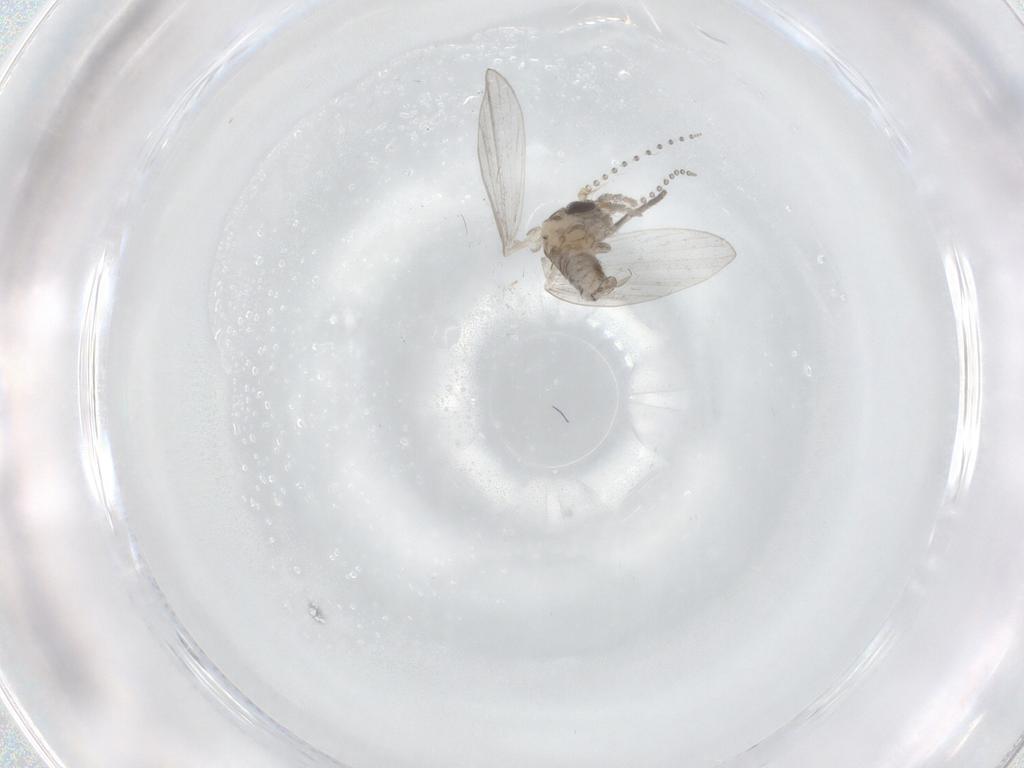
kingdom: Animalia
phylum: Arthropoda
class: Insecta
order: Diptera
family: Psychodidae
